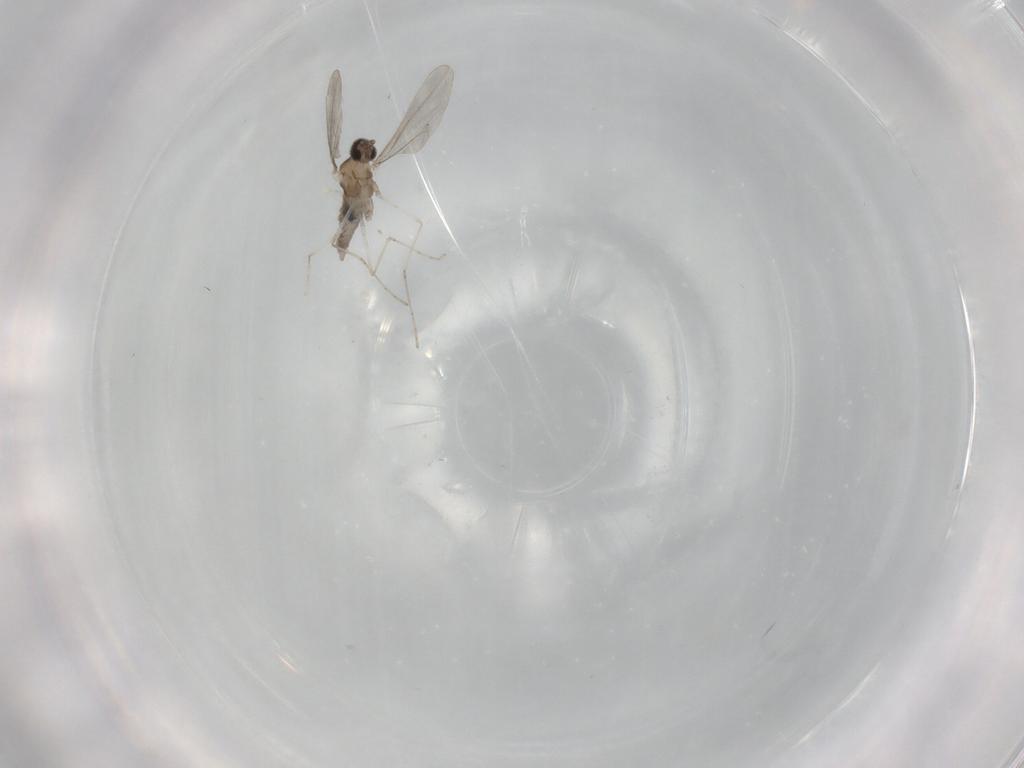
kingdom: Animalia
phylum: Arthropoda
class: Insecta
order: Diptera
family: Cecidomyiidae
